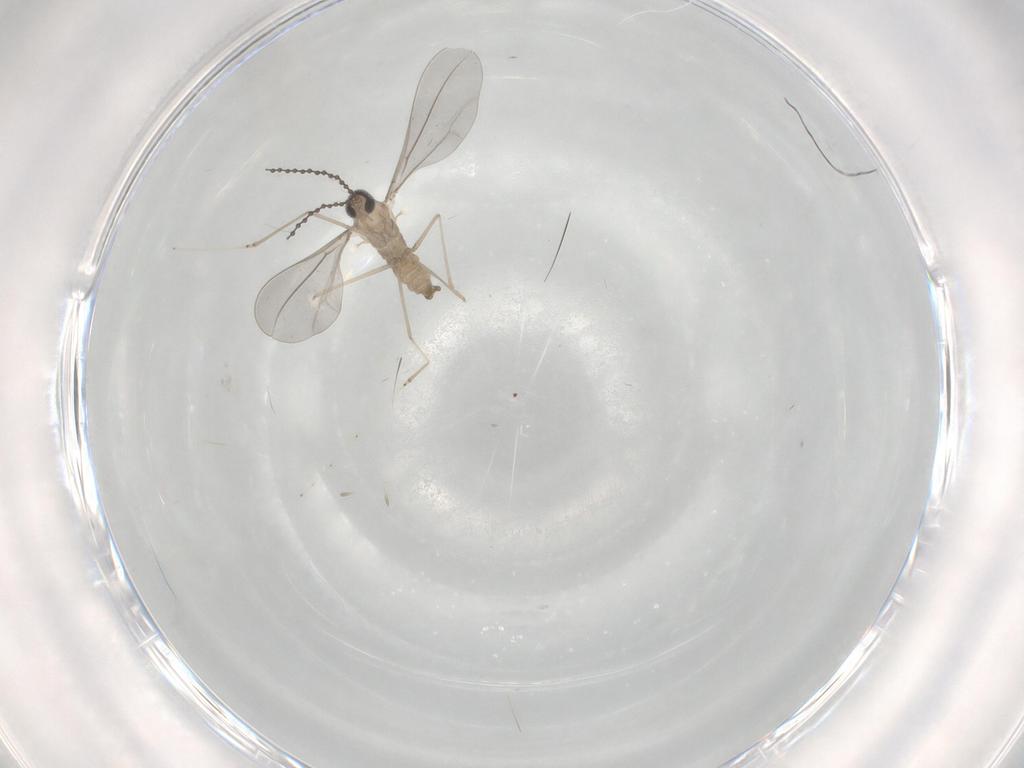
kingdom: Animalia
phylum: Arthropoda
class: Insecta
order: Diptera
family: Cecidomyiidae
